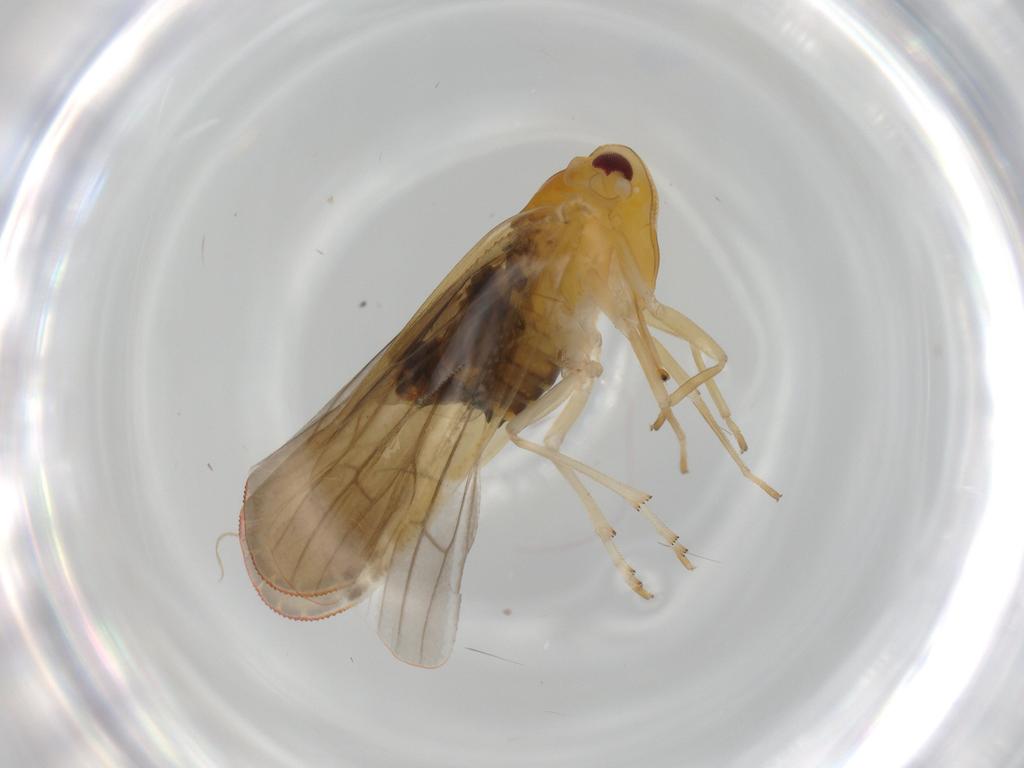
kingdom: Animalia
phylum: Arthropoda
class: Insecta
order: Hemiptera
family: Derbidae
